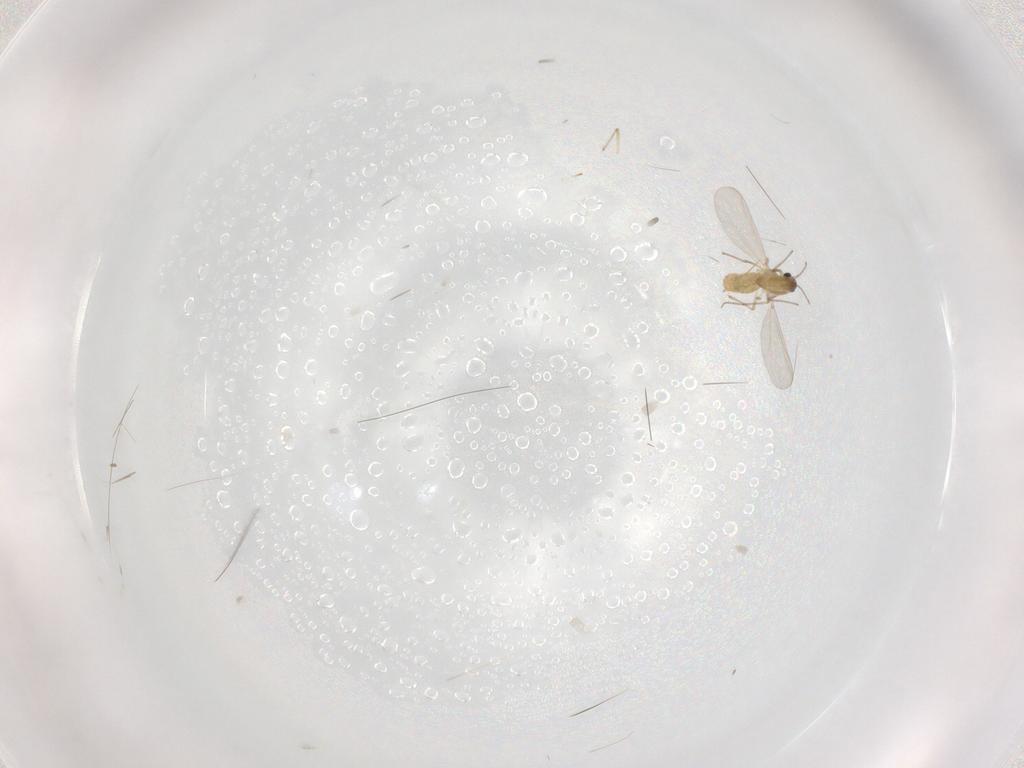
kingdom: Animalia
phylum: Arthropoda
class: Insecta
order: Diptera
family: Chironomidae
